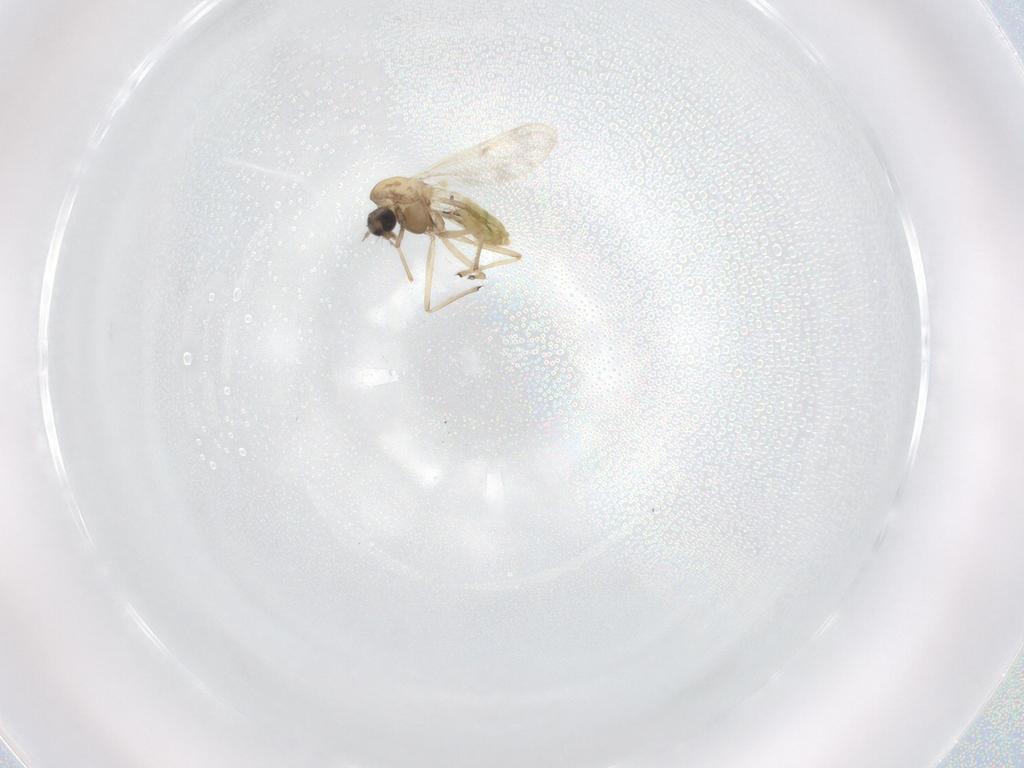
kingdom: Animalia
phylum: Arthropoda
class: Insecta
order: Diptera
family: Chironomidae
